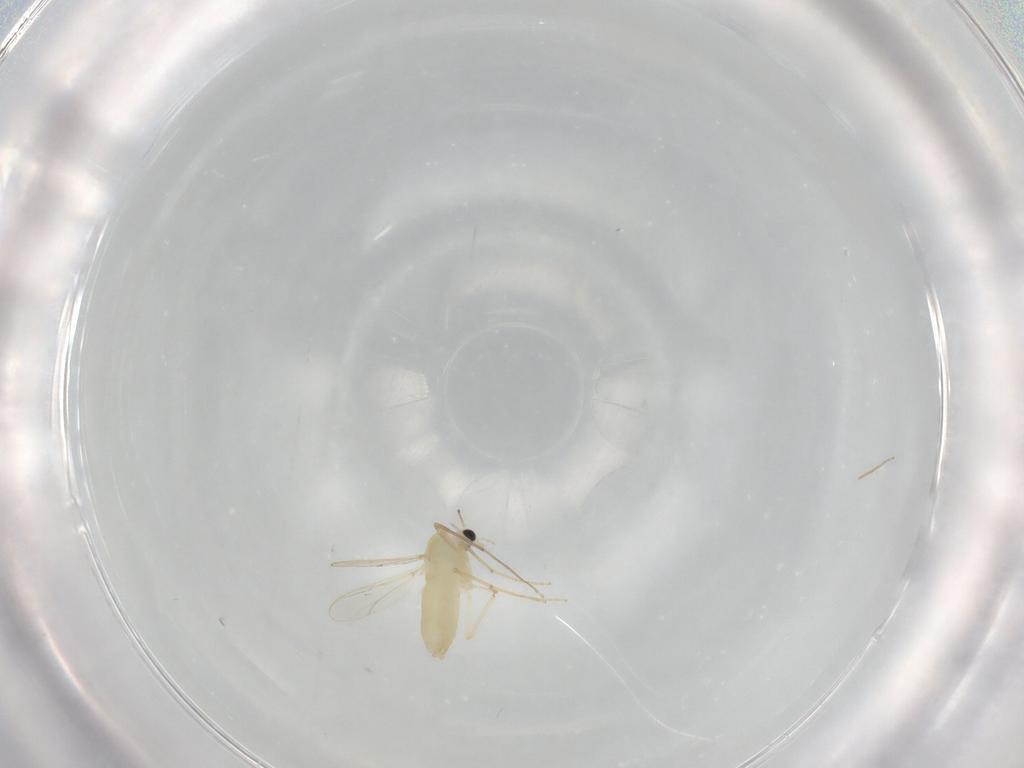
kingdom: Animalia
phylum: Arthropoda
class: Insecta
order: Diptera
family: Chironomidae
